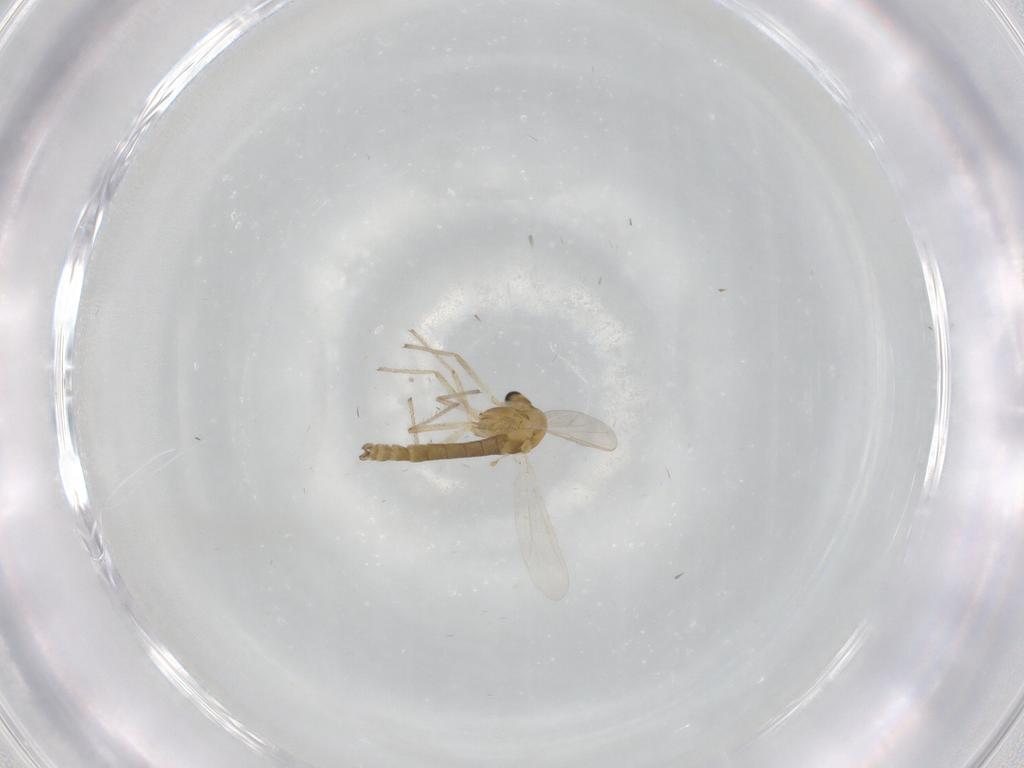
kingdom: Animalia
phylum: Arthropoda
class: Insecta
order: Diptera
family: Chironomidae
